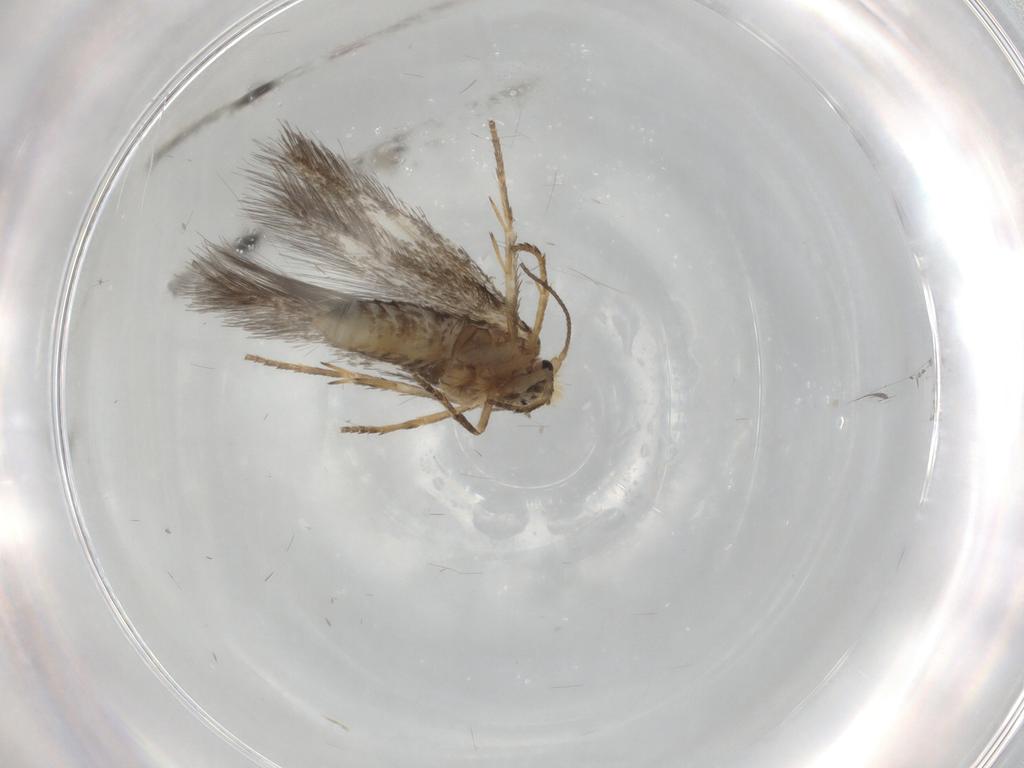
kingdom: Animalia
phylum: Arthropoda
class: Insecta
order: Lepidoptera
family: Nepticulidae
